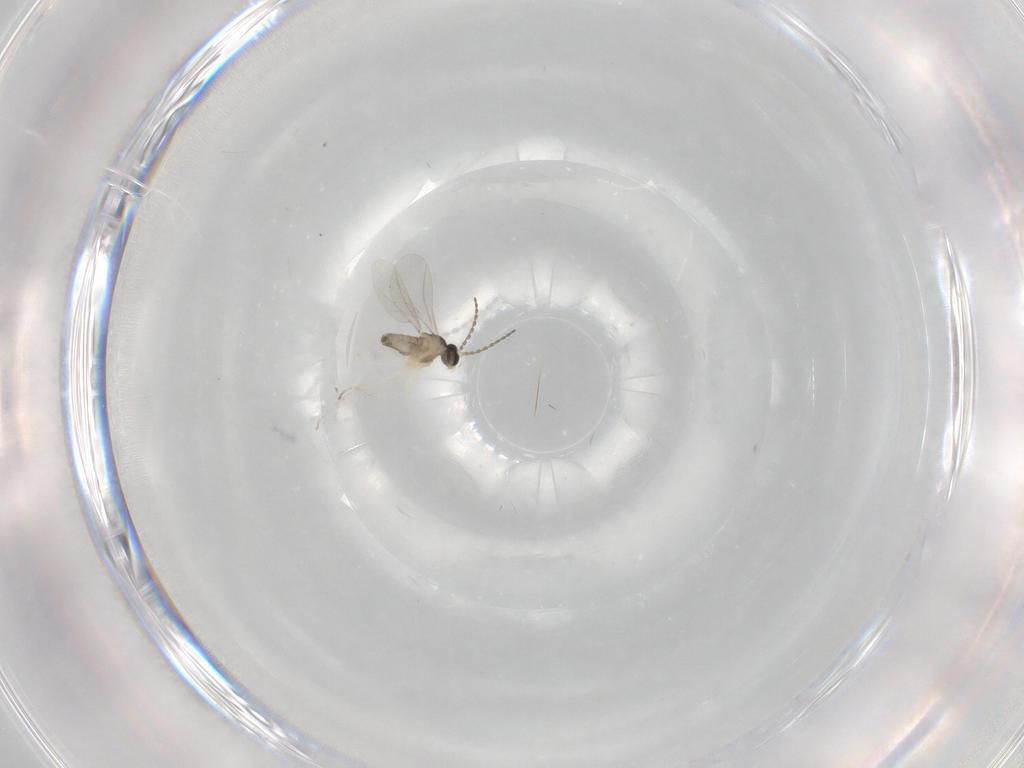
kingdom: Animalia
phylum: Arthropoda
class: Insecta
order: Diptera
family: Cecidomyiidae
